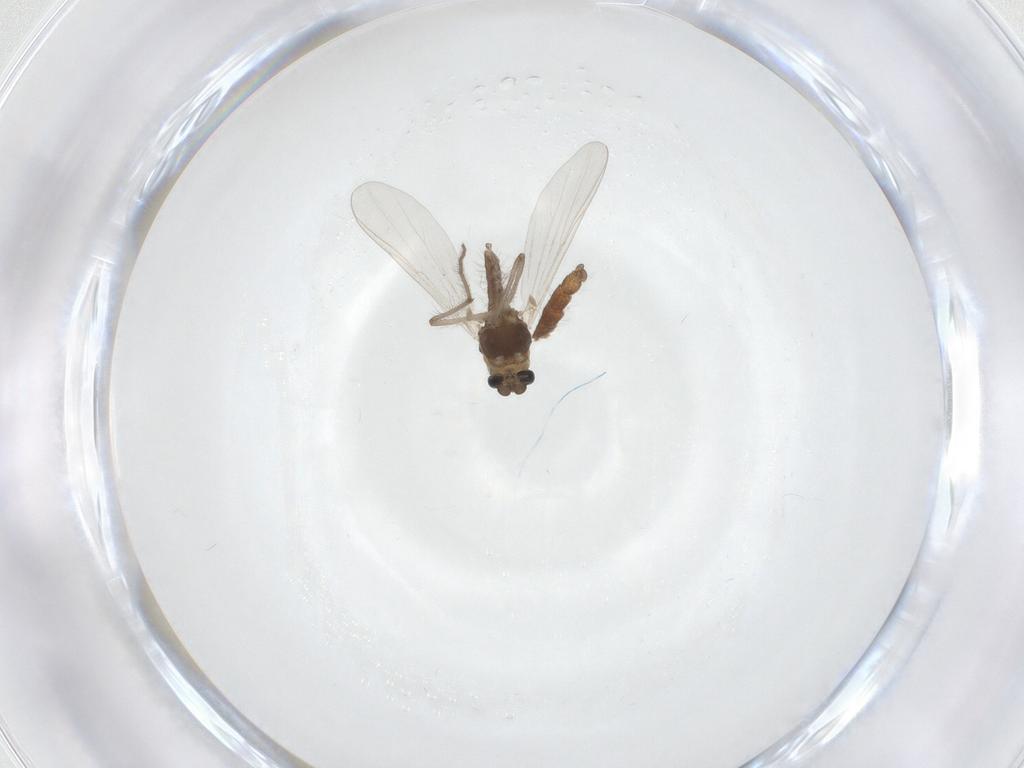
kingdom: Animalia
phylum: Arthropoda
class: Insecta
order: Diptera
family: Chironomidae
